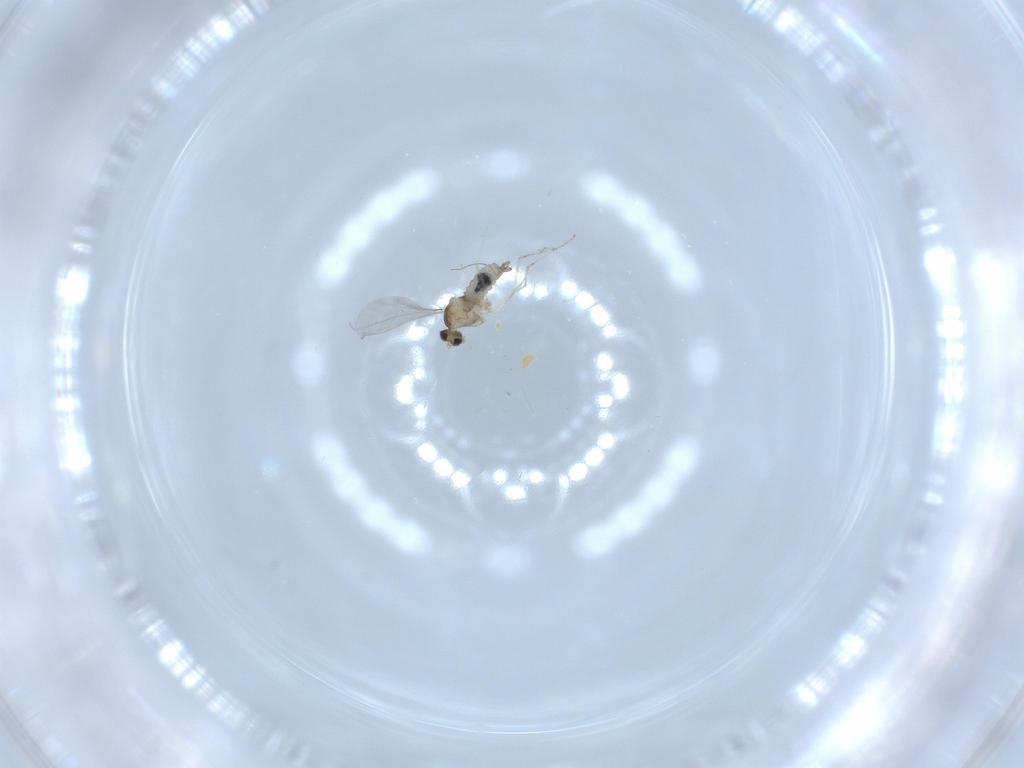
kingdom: Animalia
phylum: Arthropoda
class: Insecta
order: Diptera
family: Cecidomyiidae
